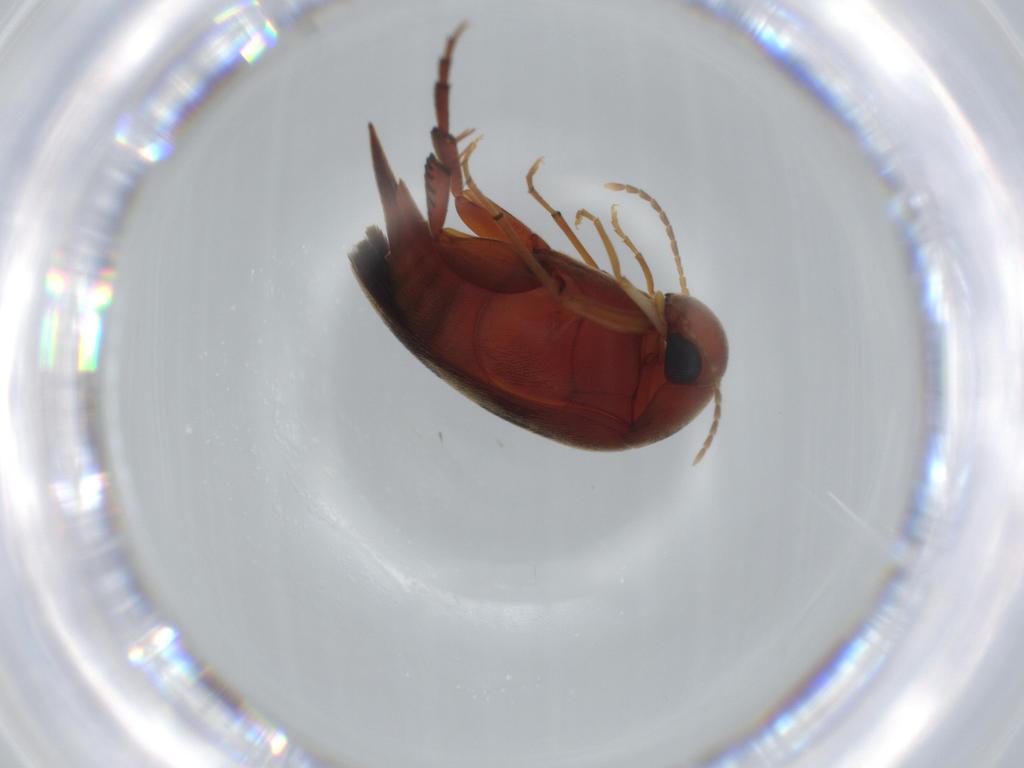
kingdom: Animalia
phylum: Arthropoda
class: Insecta
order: Coleoptera
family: Mordellidae
